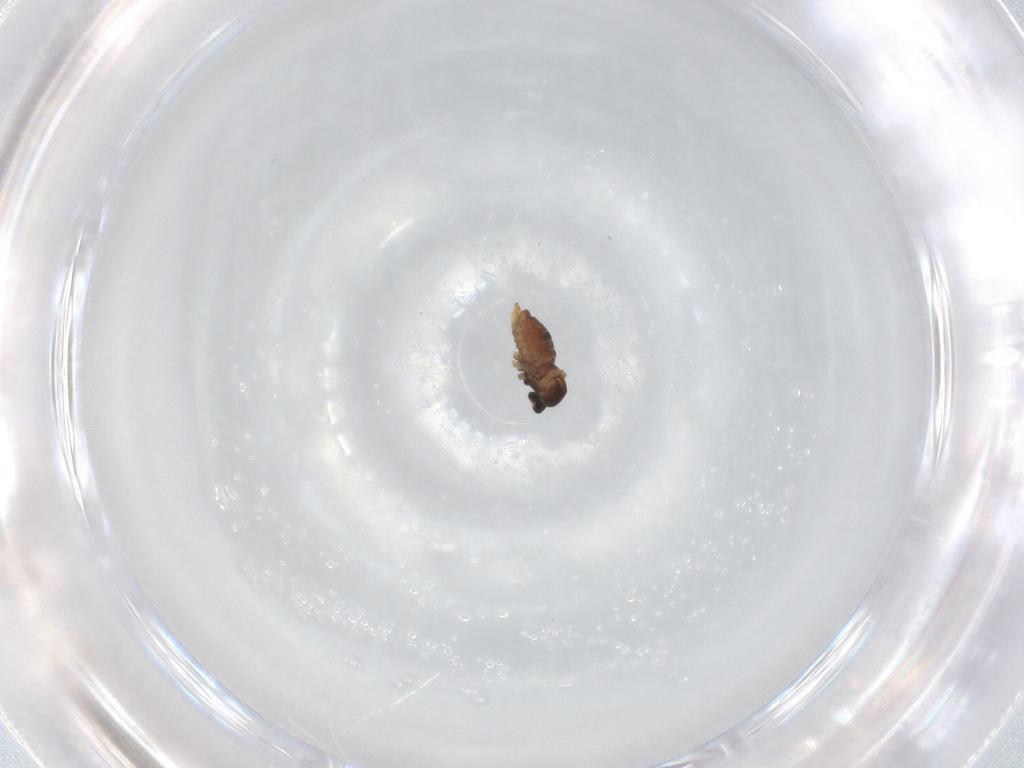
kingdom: Animalia
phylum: Arthropoda
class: Insecta
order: Diptera
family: Cecidomyiidae
